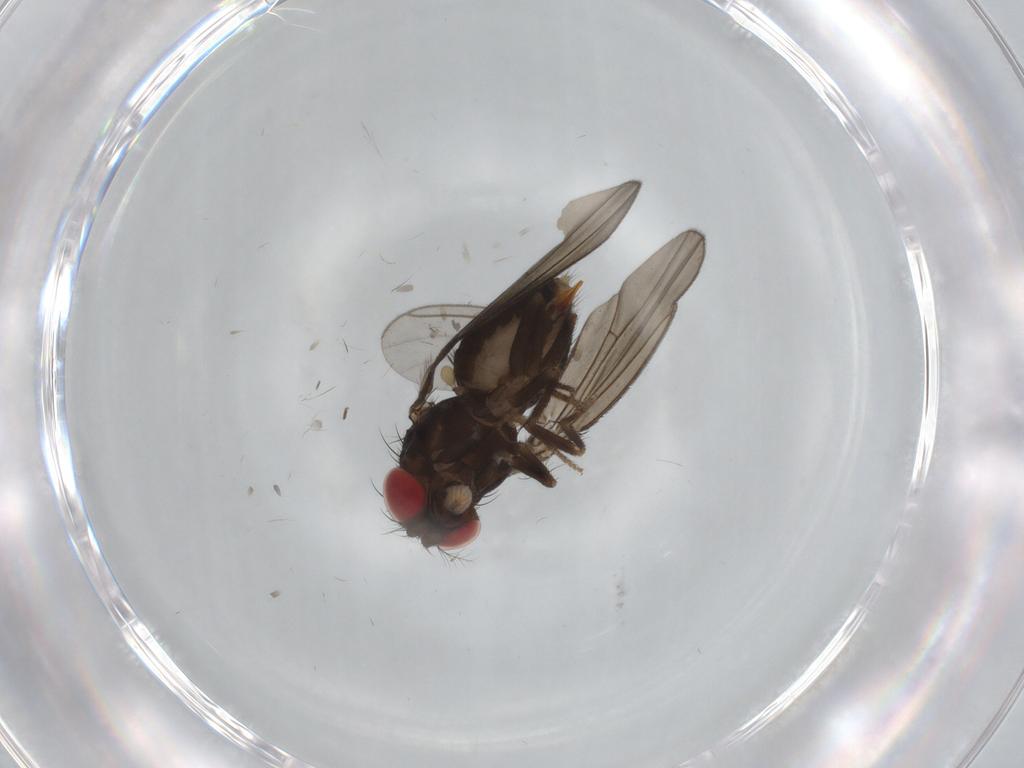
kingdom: Animalia
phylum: Arthropoda
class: Insecta
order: Diptera
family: Drosophilidae
